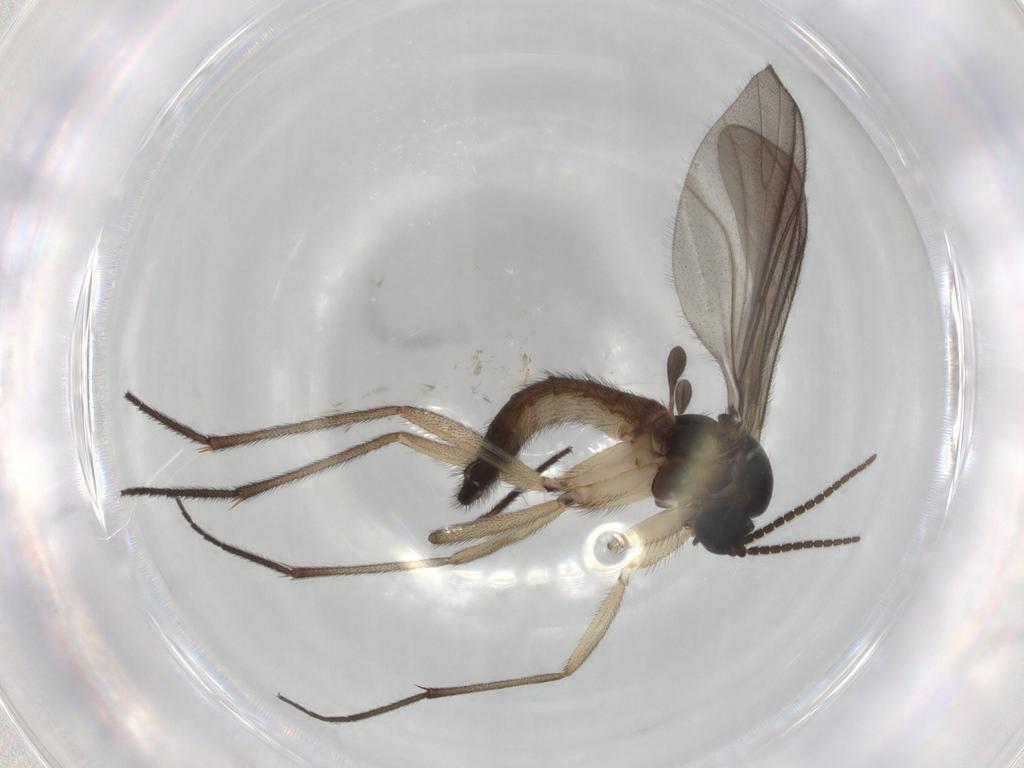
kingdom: Animalia
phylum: Arthropoda
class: Insecta
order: Diptera
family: Sciaridae
